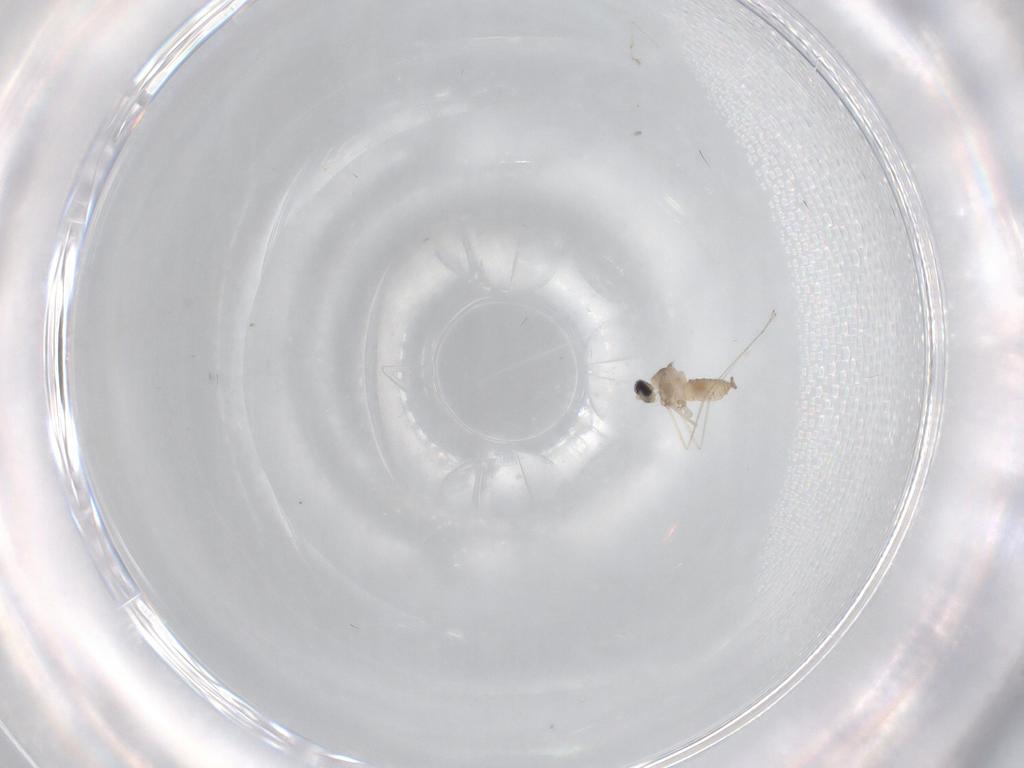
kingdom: Animalia
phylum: Arthropoda
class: Insecta
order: Diptera
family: Cecidomyiidae
